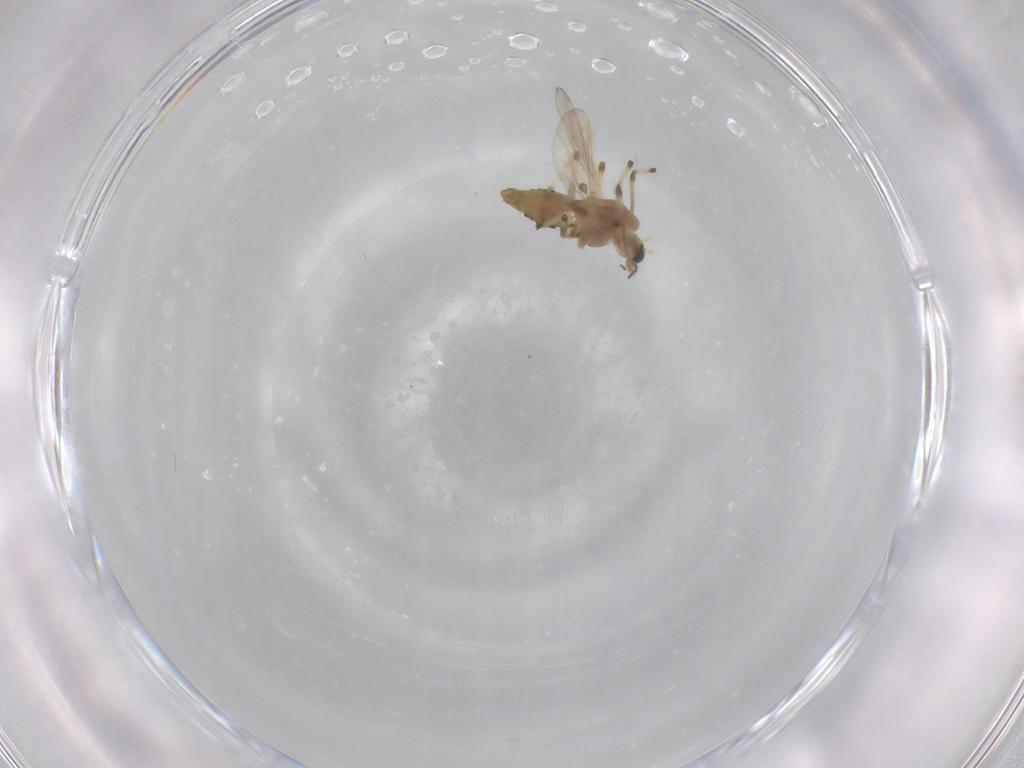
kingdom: Animalia
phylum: Arthropoda
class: Insecta
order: Diptera
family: Chironomidae
